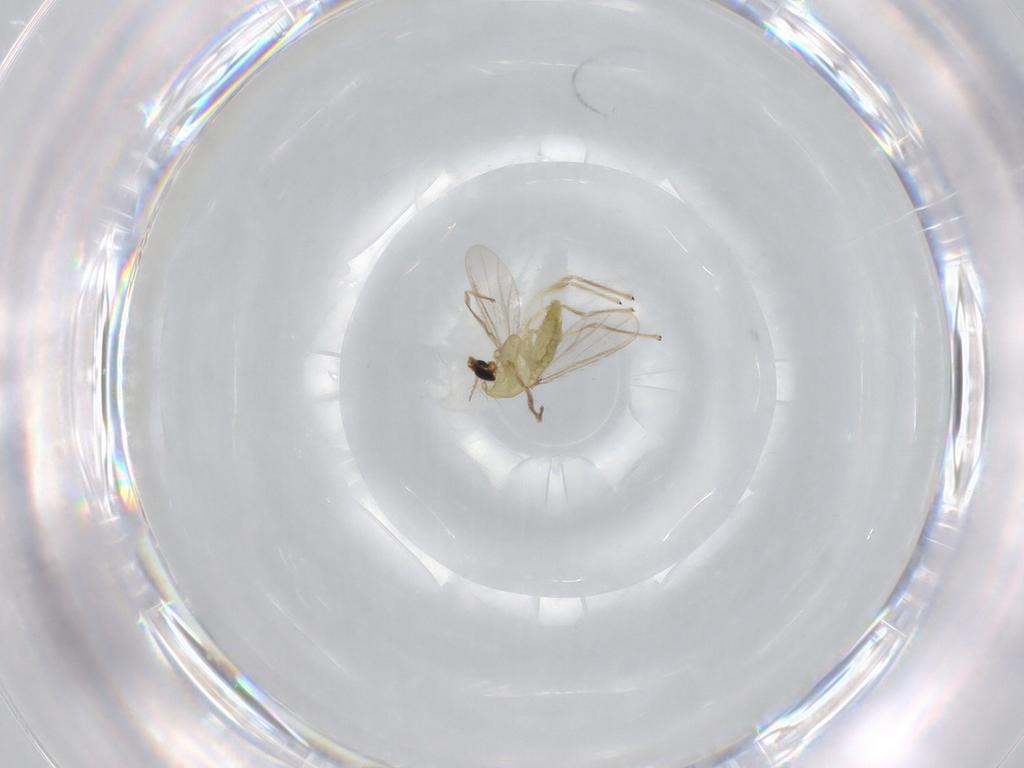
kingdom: Animalia
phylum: Arthropoda
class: Insecta
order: Diptera
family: Chironomidae
